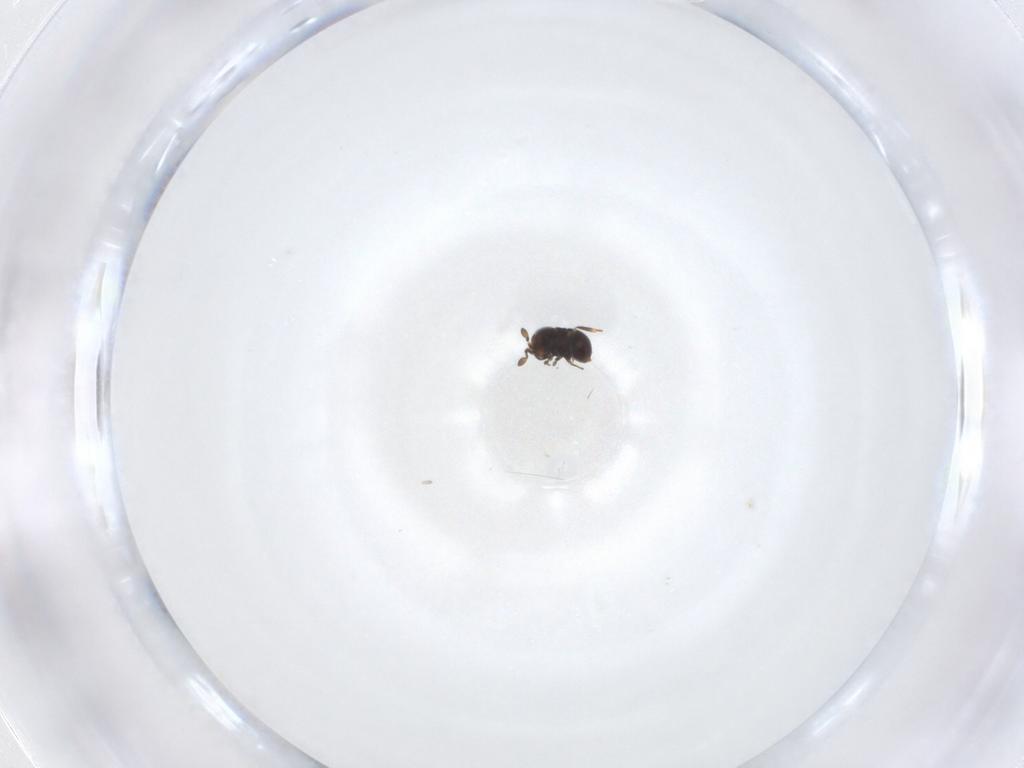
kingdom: Animalia
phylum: Arthropoda
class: Insecta
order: Hymenoptera
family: Scelionidae
